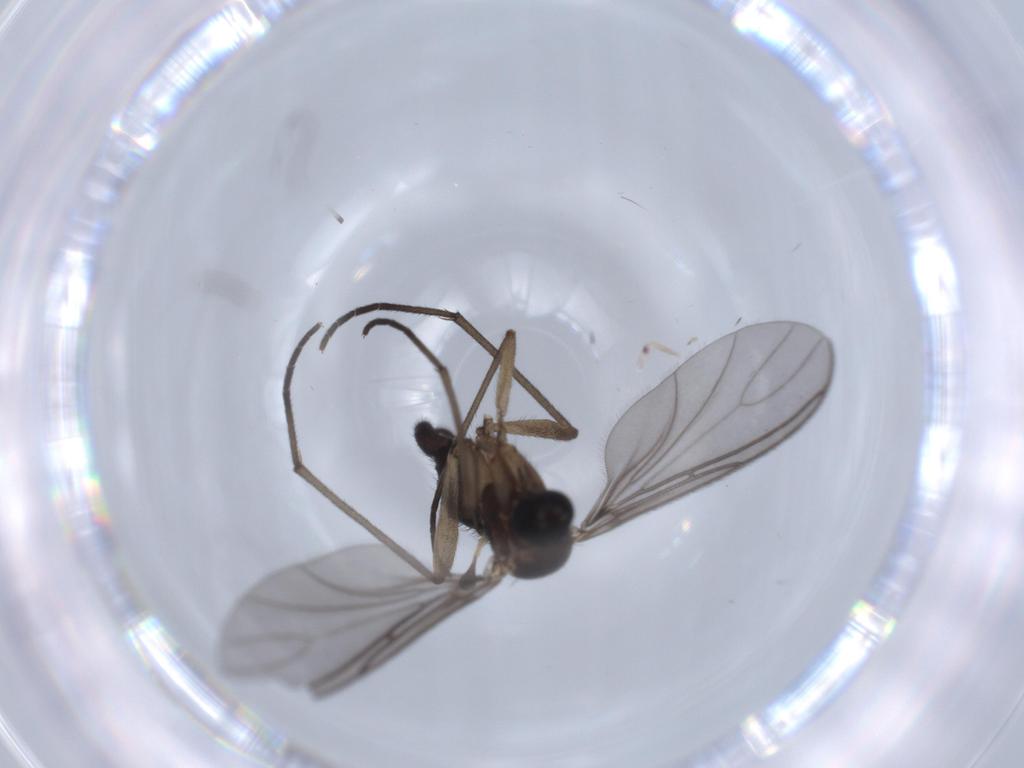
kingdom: Animalia
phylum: Arthropoda
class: Insecta
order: Diptera
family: Sciaridae
